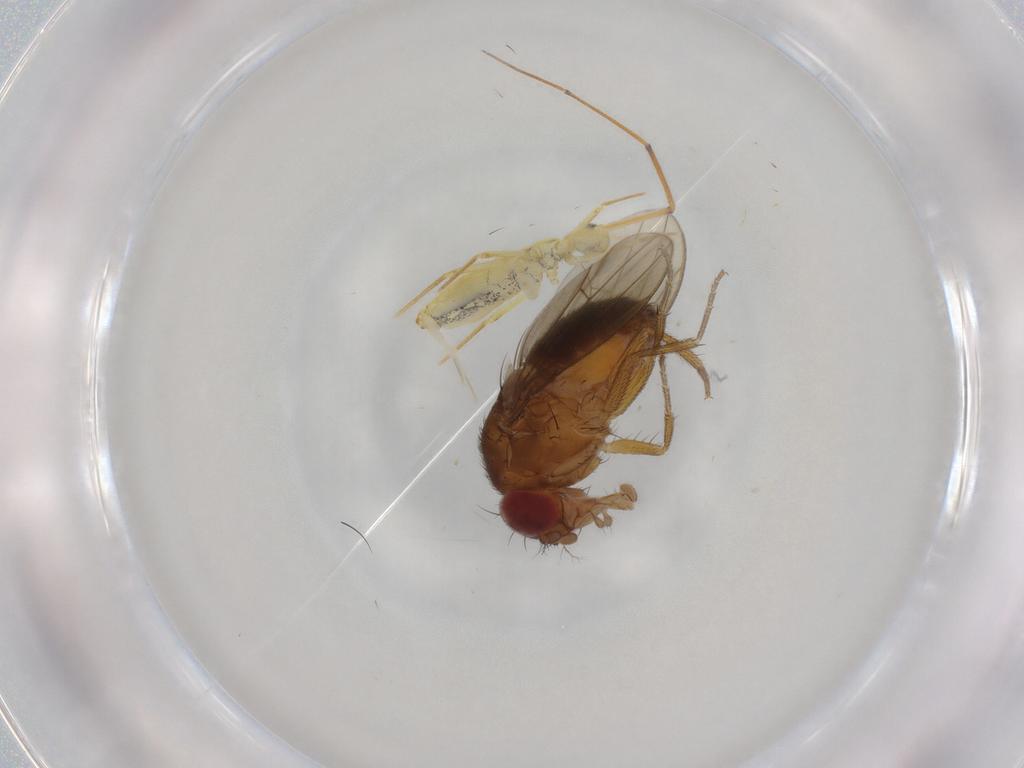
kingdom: Animalia
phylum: Arthropoda
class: Insecta
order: Diptera
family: Drosophilidae
